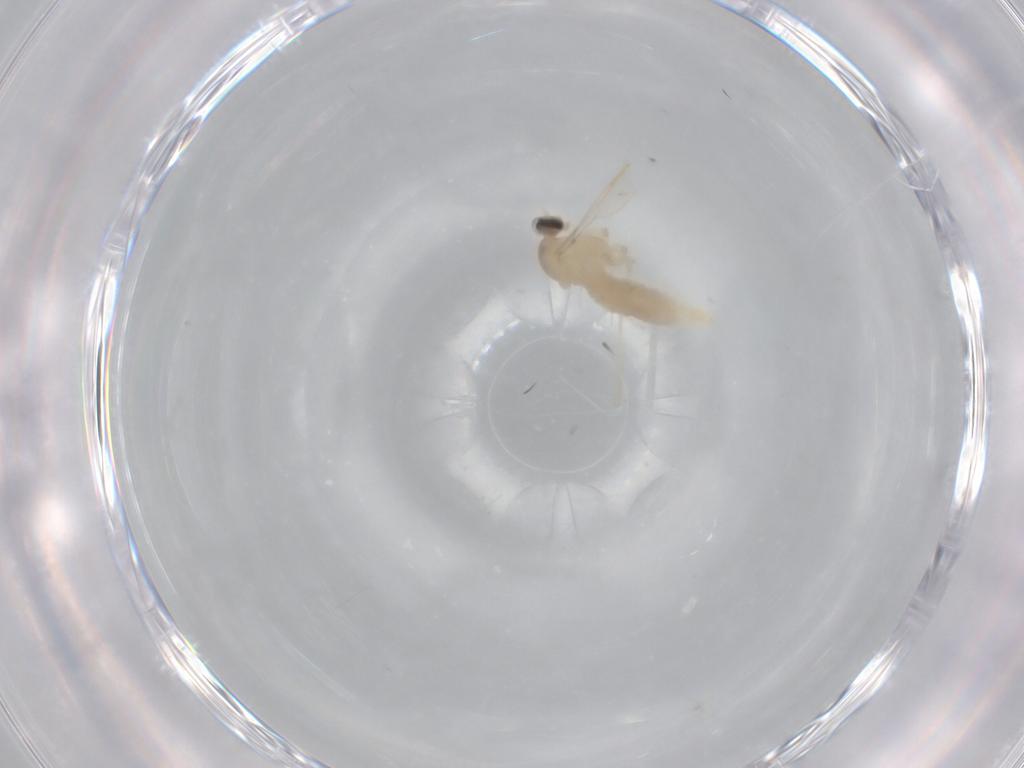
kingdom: Animalia
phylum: Arthropoda
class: Insecta
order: Diptera
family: Cecidomyiidae
